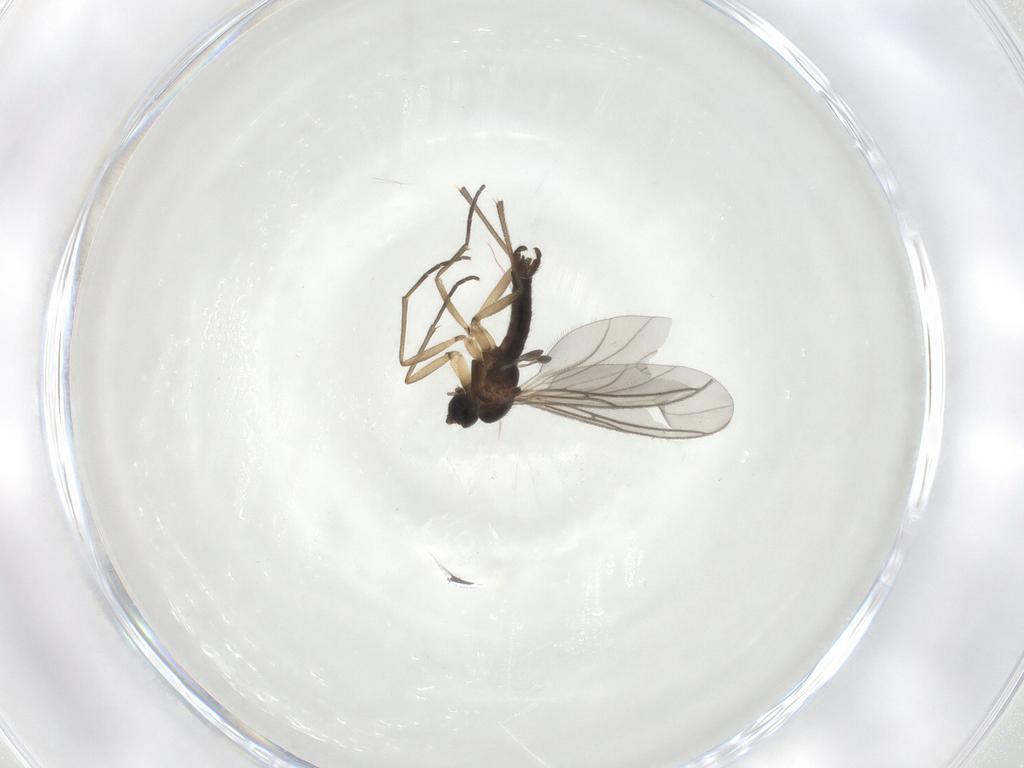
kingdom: Animalia
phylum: Arthropoda
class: Insecta
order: Diptera
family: Sciaridae
